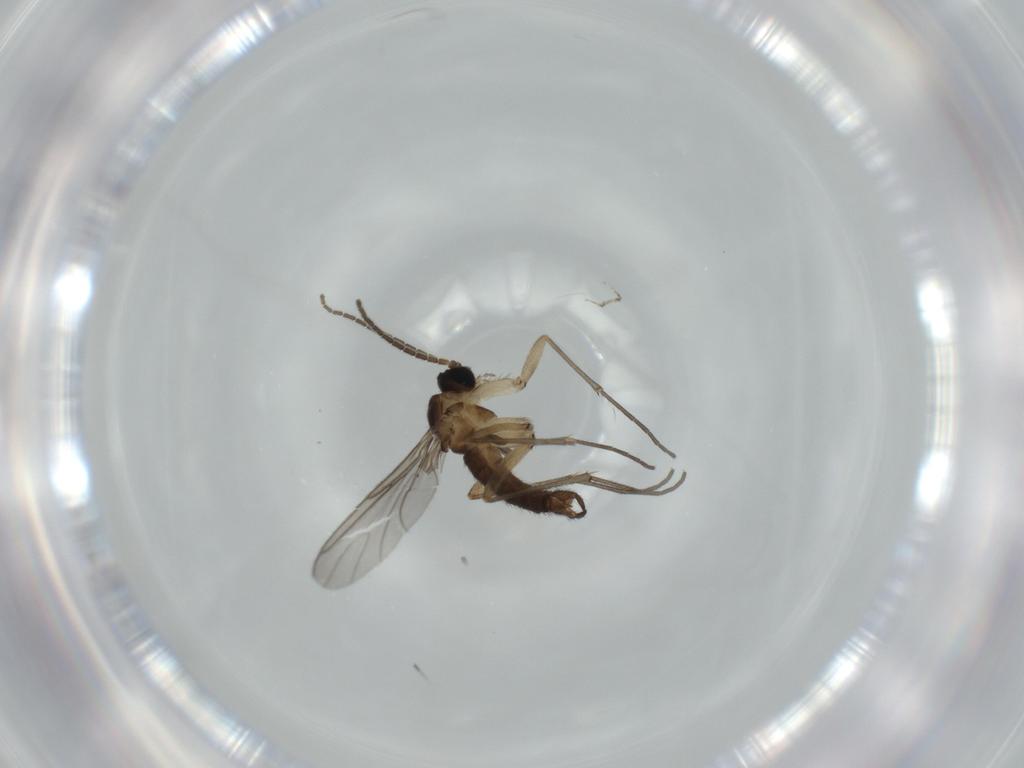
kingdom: Animalia
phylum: Arthropoda
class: Insecta
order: Diptera
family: Sciaridae
